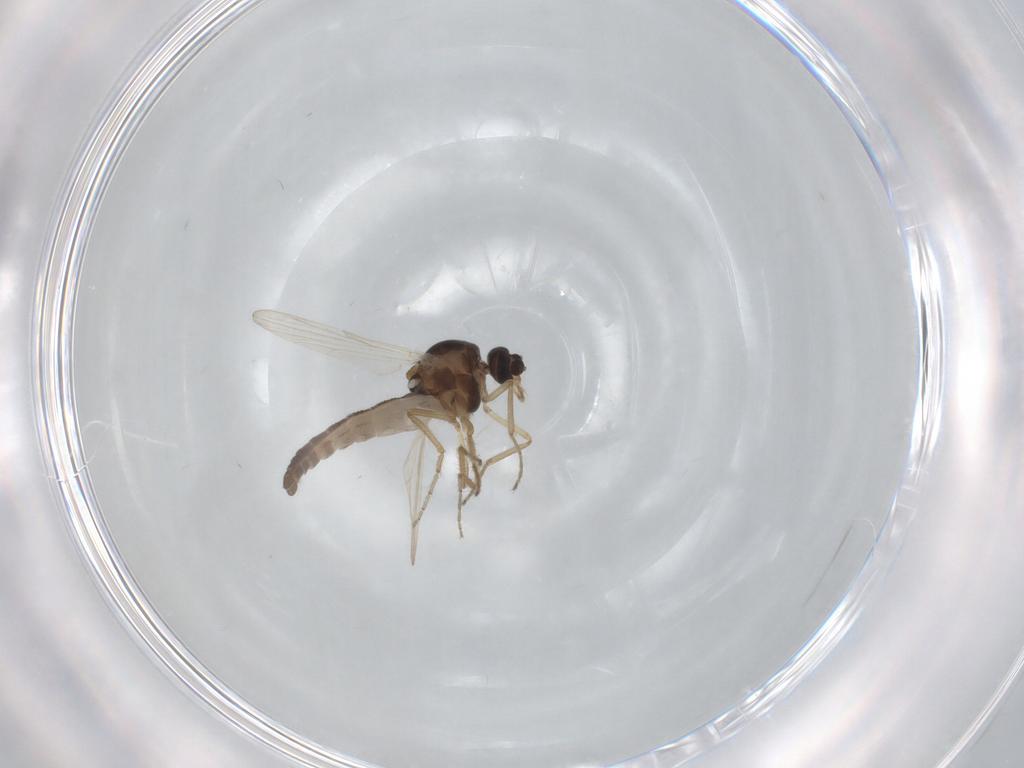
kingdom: Animalia
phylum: Arthropoda
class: Insecta
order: Diptera
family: Ceratopogonidae
